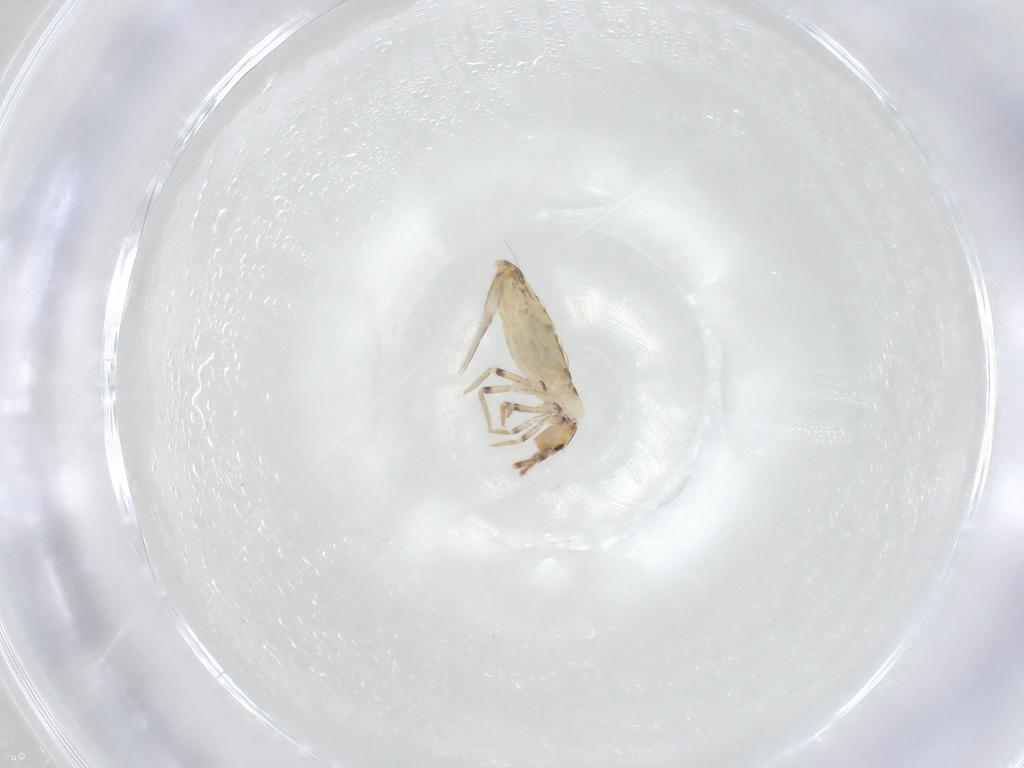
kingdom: Animalia
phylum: Arthropoda
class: Collembola
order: Entomobryomorpha
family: Entomobryidae
